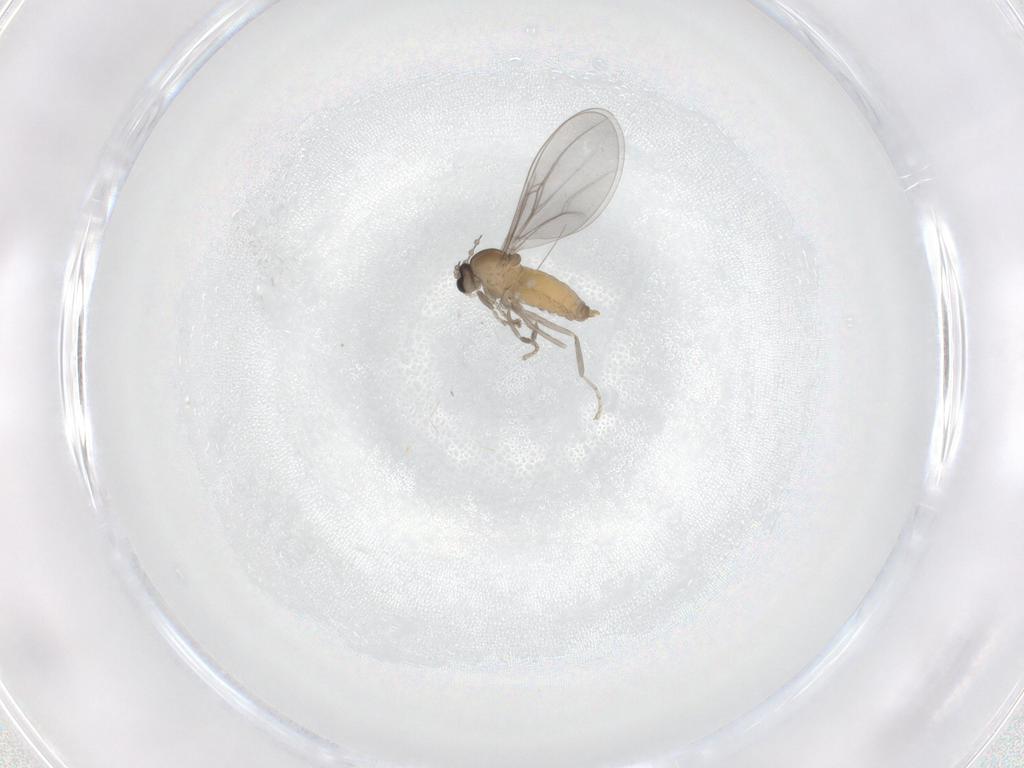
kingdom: Animalia
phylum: Arthropoda
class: Insecta
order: Diptera
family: Cecidomyiidae
